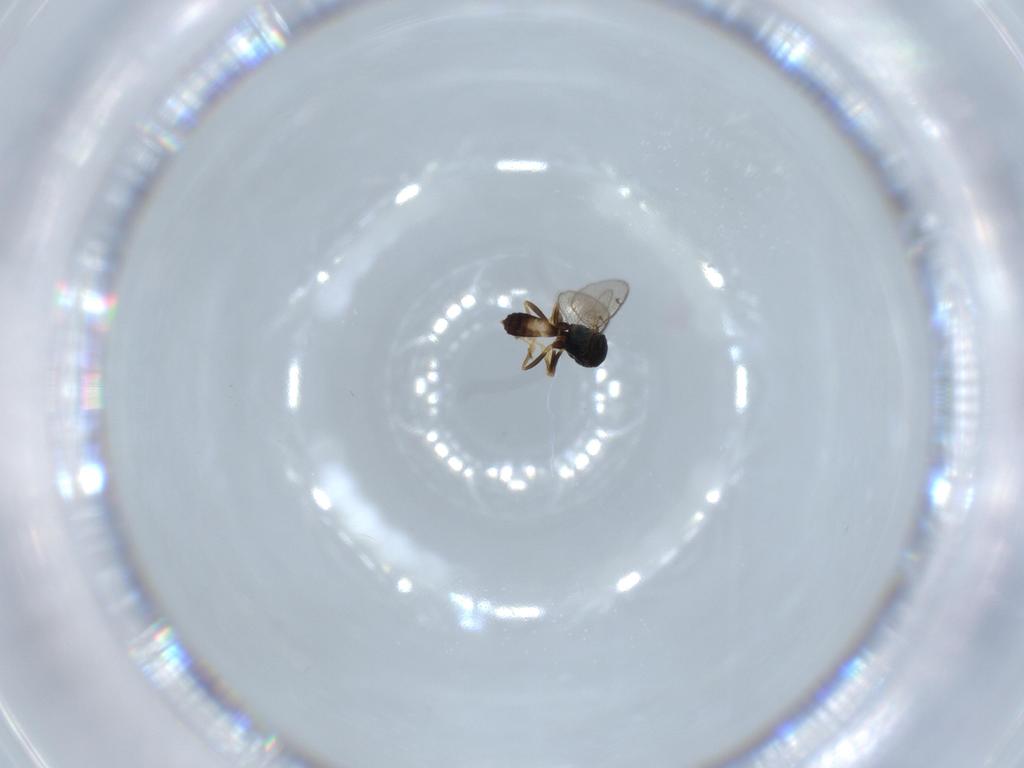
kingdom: Animalia
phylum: Arthropoda
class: Insecta
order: Hymenoptera
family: Pteromalidae
